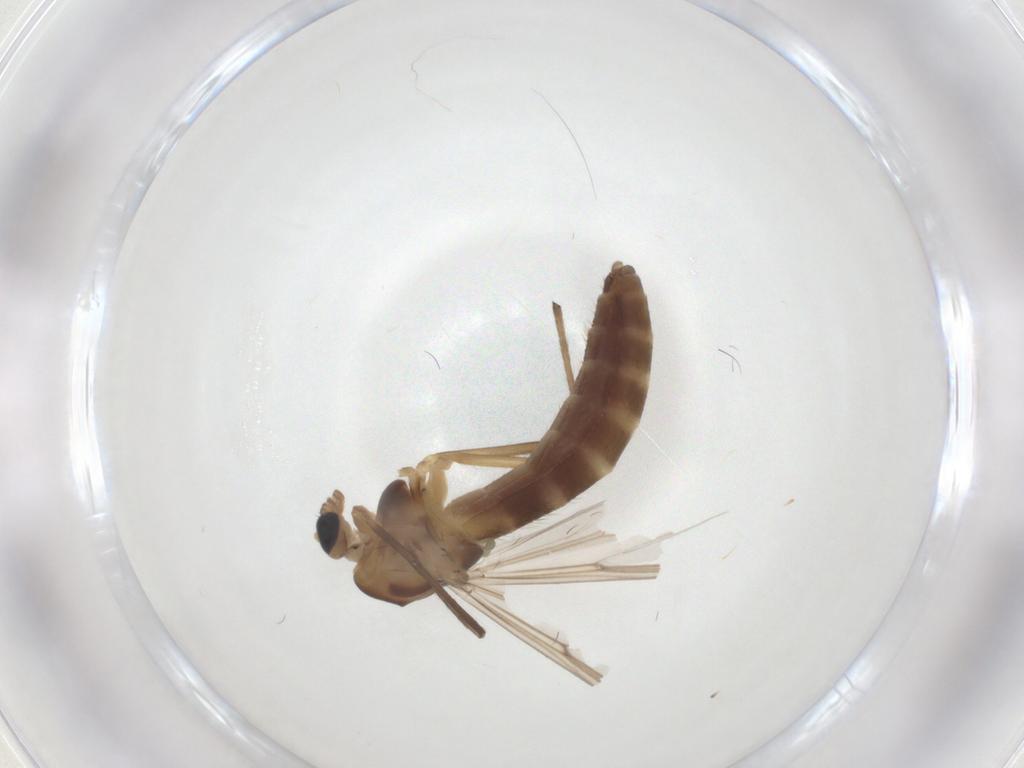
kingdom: Animalia
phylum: Arthropoda
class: Insecta
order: Diptera
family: Chironomidae
